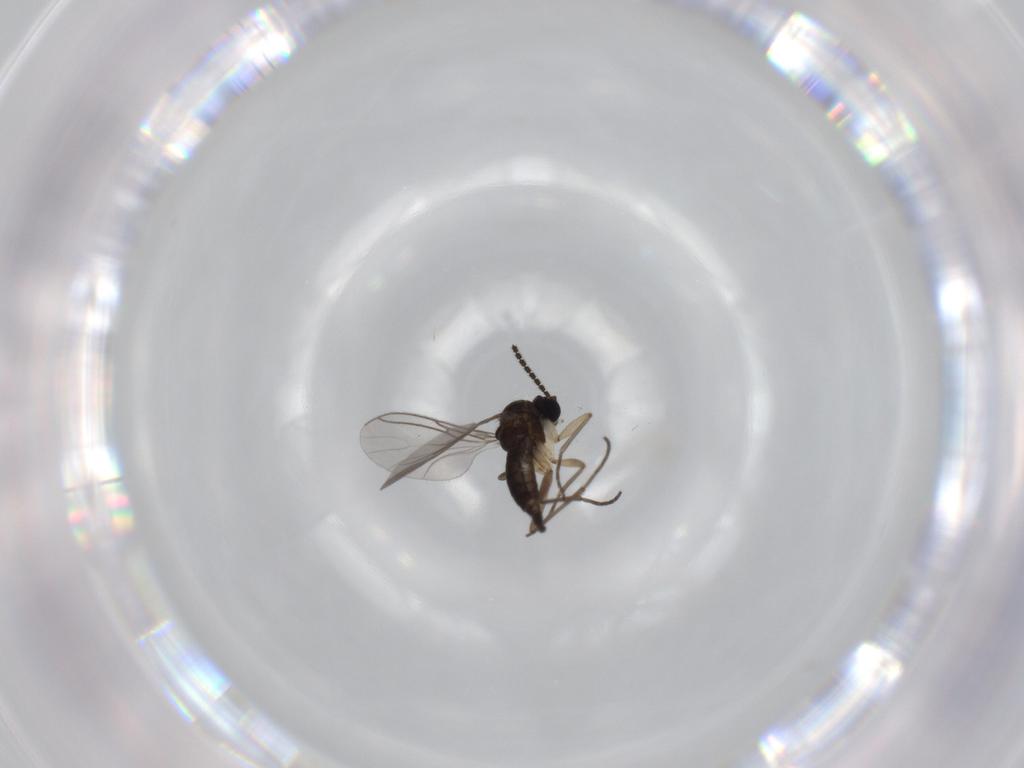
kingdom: Animalia
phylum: Arthropoda
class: Insecta
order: Diptera
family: Sciaridae
